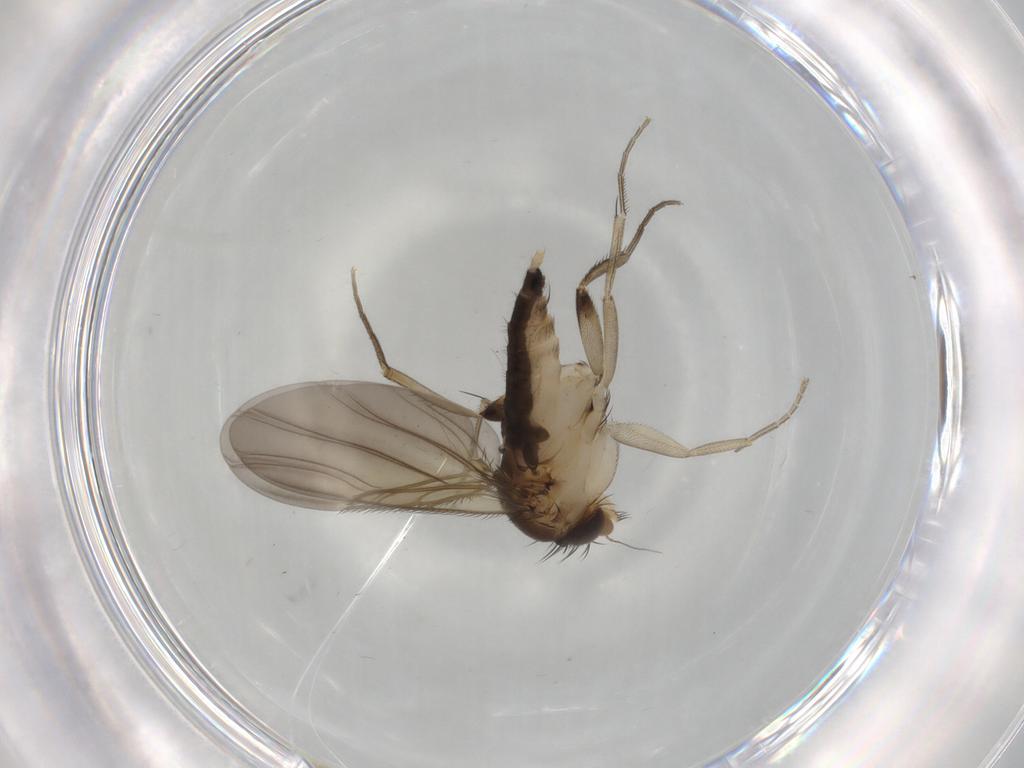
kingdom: Animalia
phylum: Arthropoda
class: Insecta
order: Diptera
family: Phoridae
